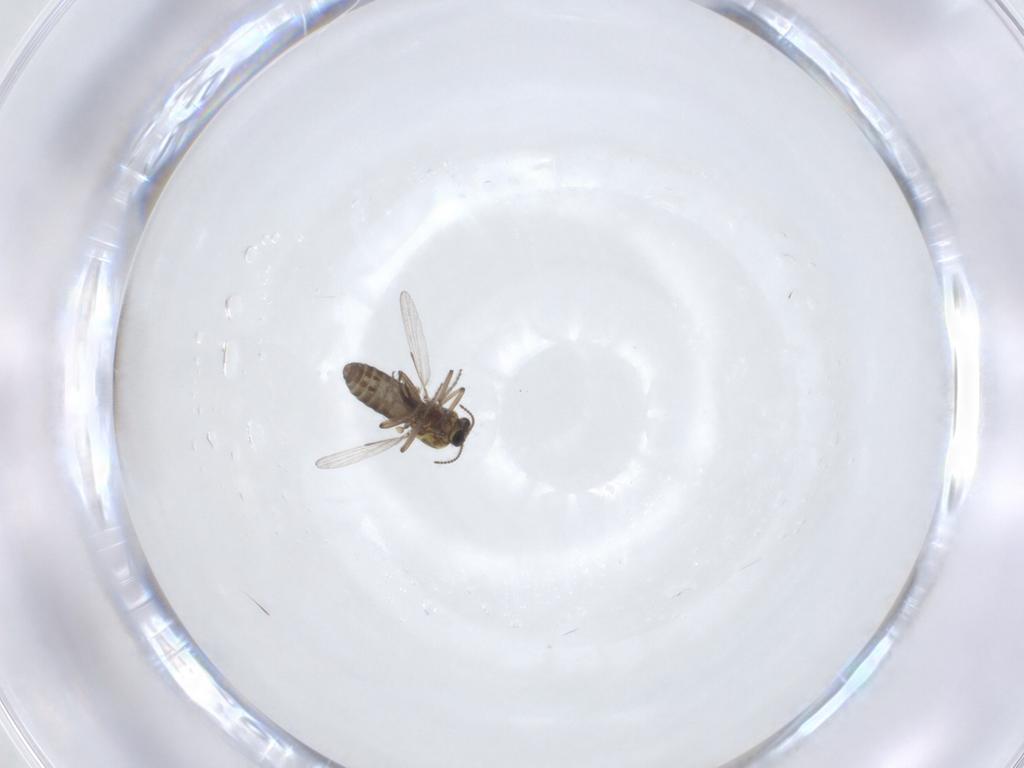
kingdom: Animalia
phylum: Arthropoda
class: Insecta
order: Diptera
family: Ceratopogonidae
